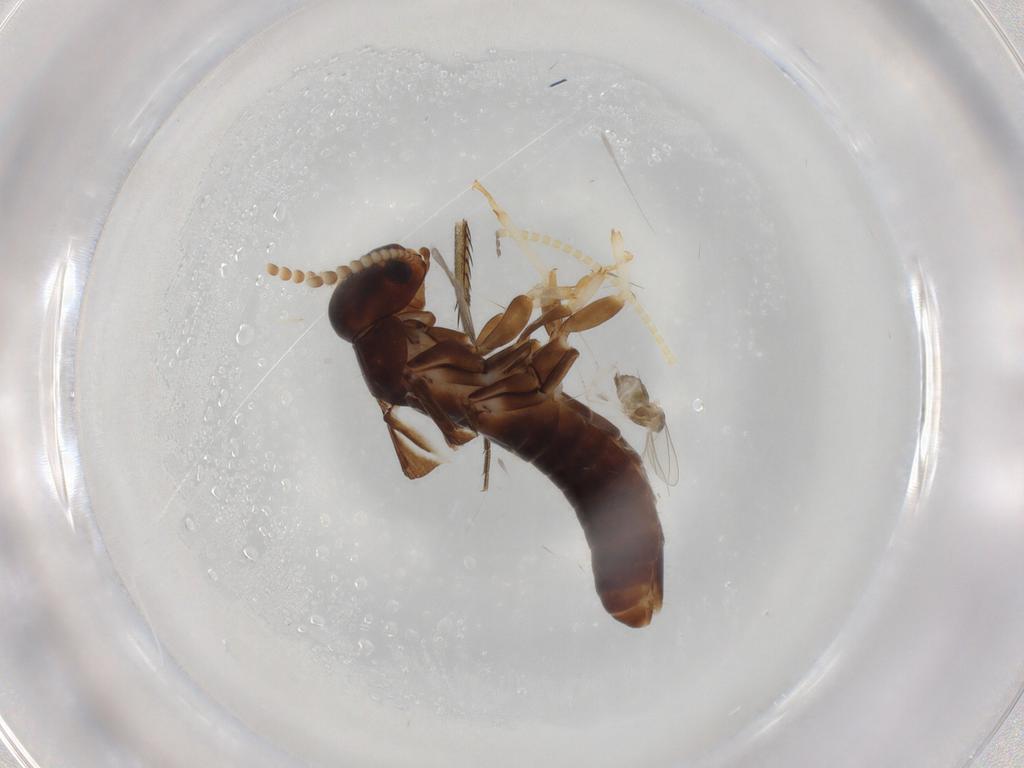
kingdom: Animalia
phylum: Arthropoda
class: Insecta
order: Blattodea
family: Kalotermitidae
